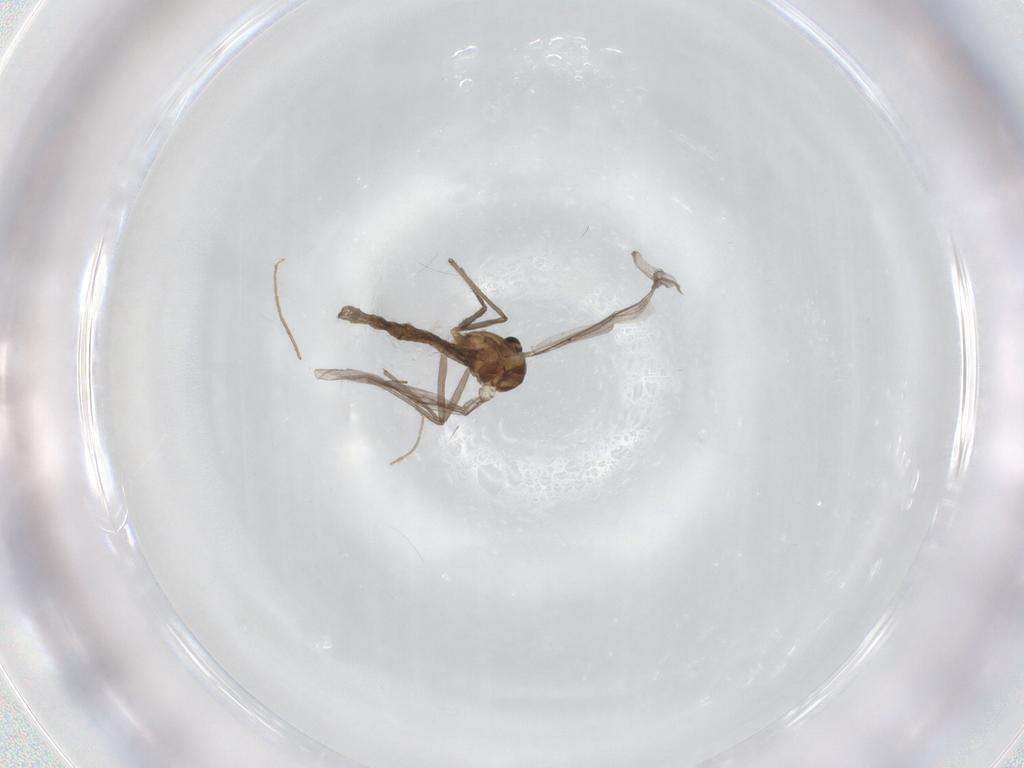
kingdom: Animalia
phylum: Arthropoda
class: Insecta
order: Diptera
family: Chironomidae
